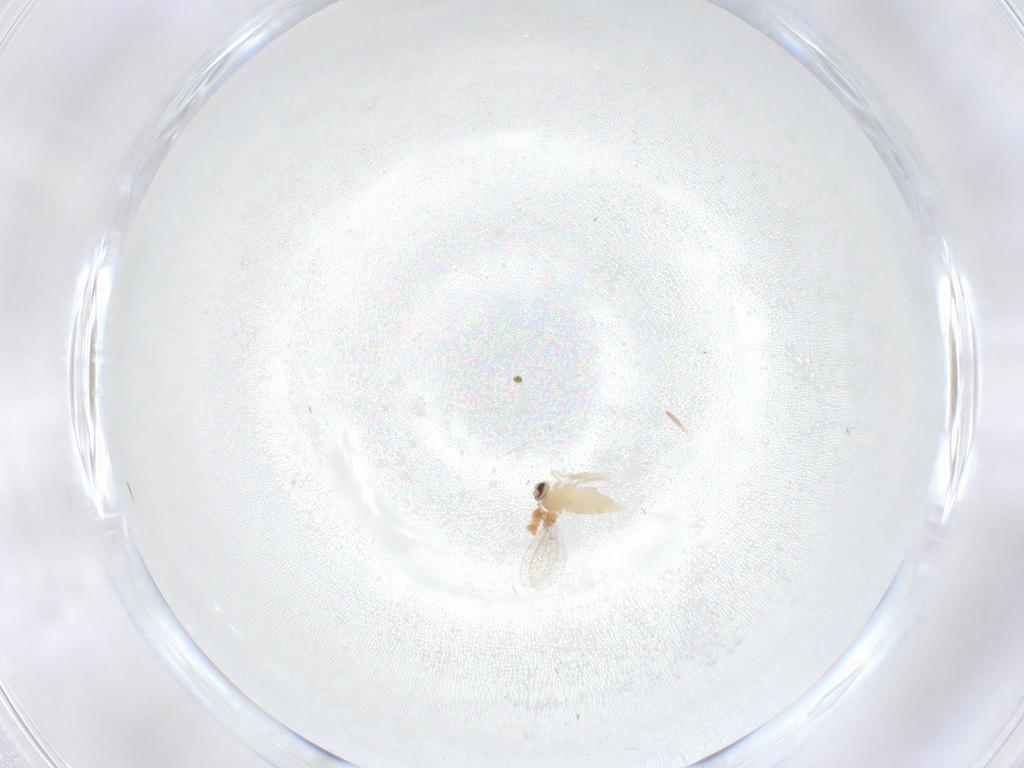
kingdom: Animalia
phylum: Arthropoda
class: Insecta
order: Diptera
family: Cecidomyiidae
